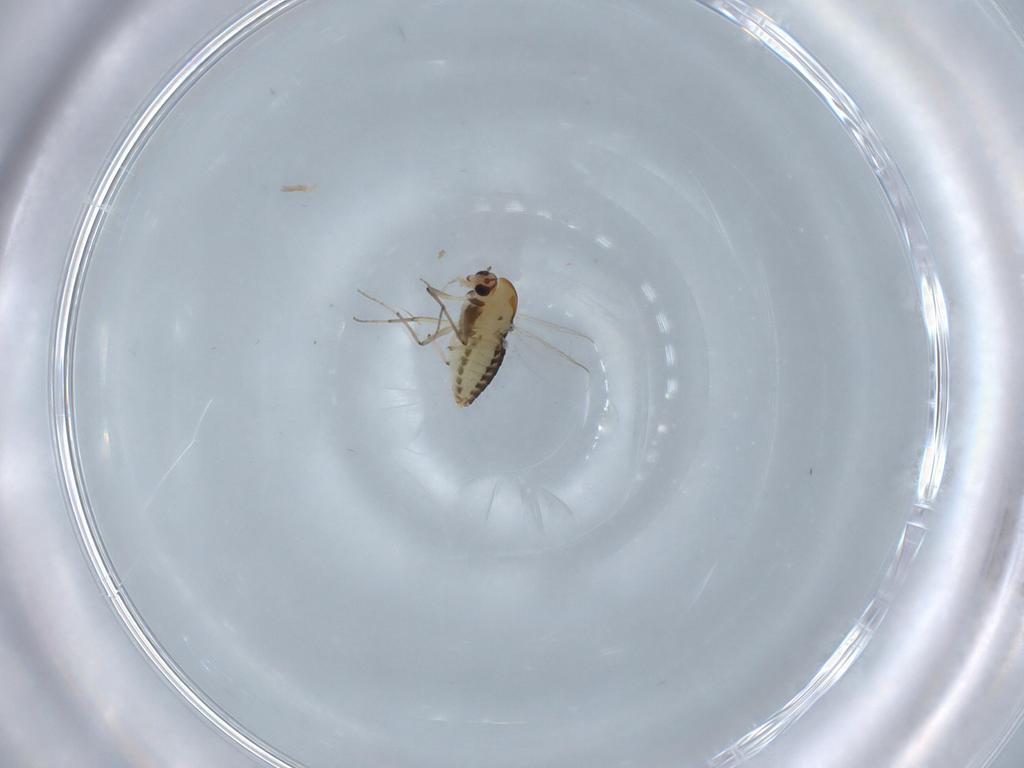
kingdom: Animalia
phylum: Arthropoda
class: Insecta
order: Diptera
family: Chironomidae
